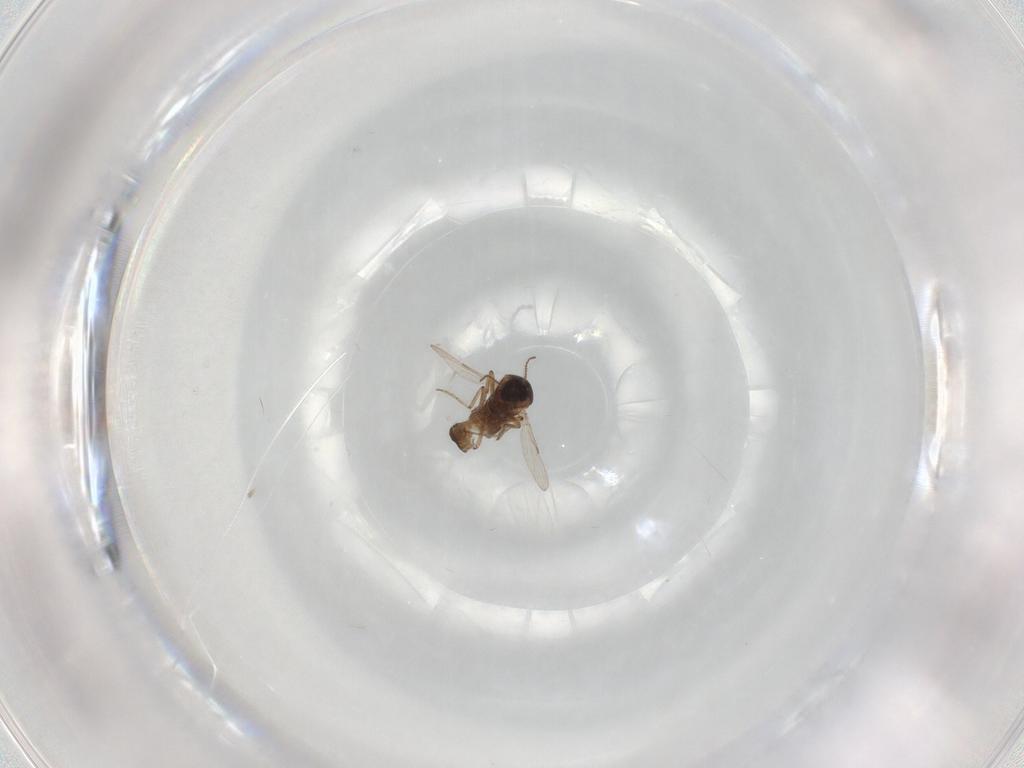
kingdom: Animalia
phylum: Arthropoda
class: Insecta
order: Diptera
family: Ceratopogonidae
